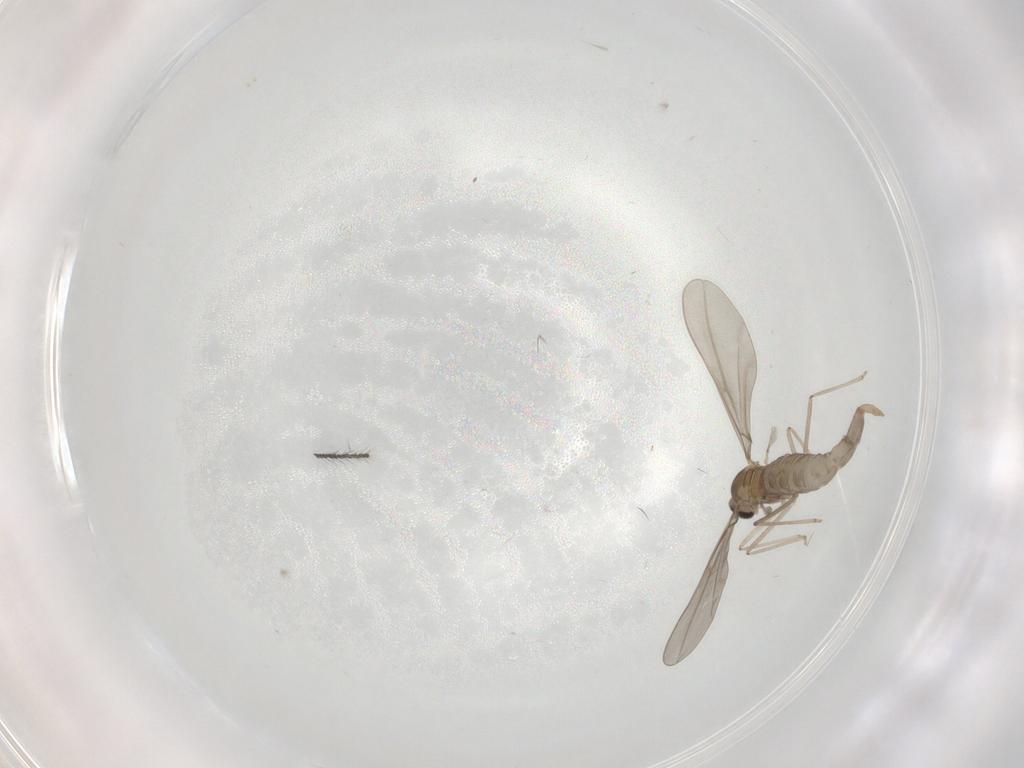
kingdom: Animalia
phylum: Arthropoda
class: Insecta
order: Diptera
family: Cecidomyiidae
